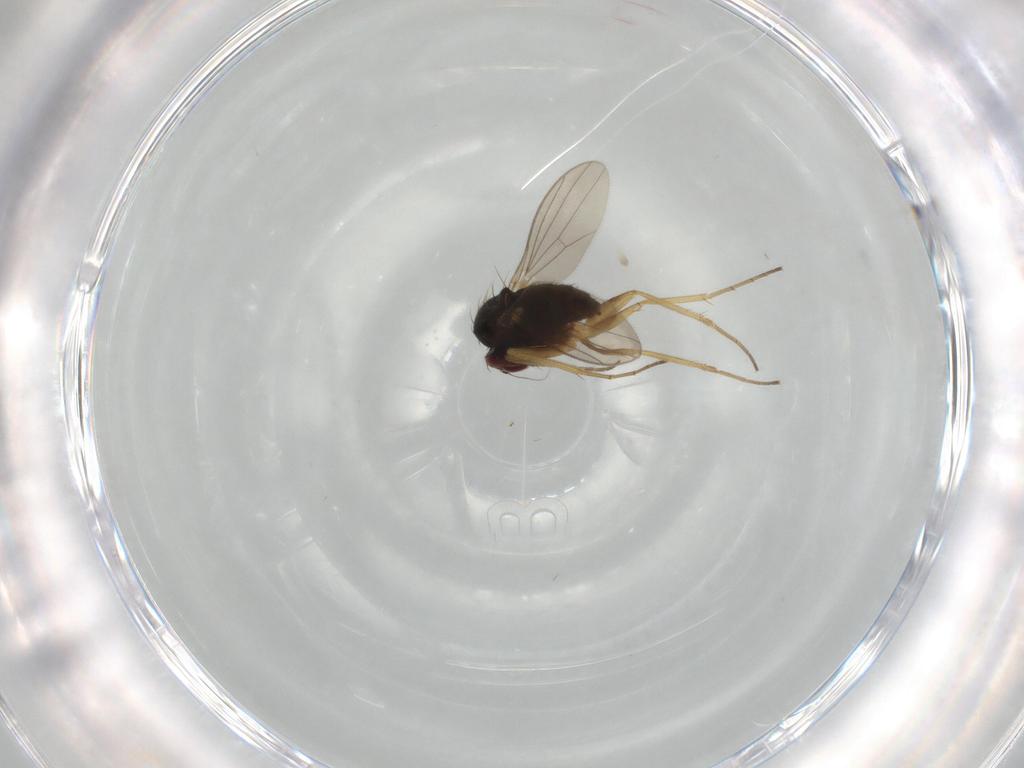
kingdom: Animalia
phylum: Arthropoda
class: Insecta
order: Diptera
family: Dolichopodidae
